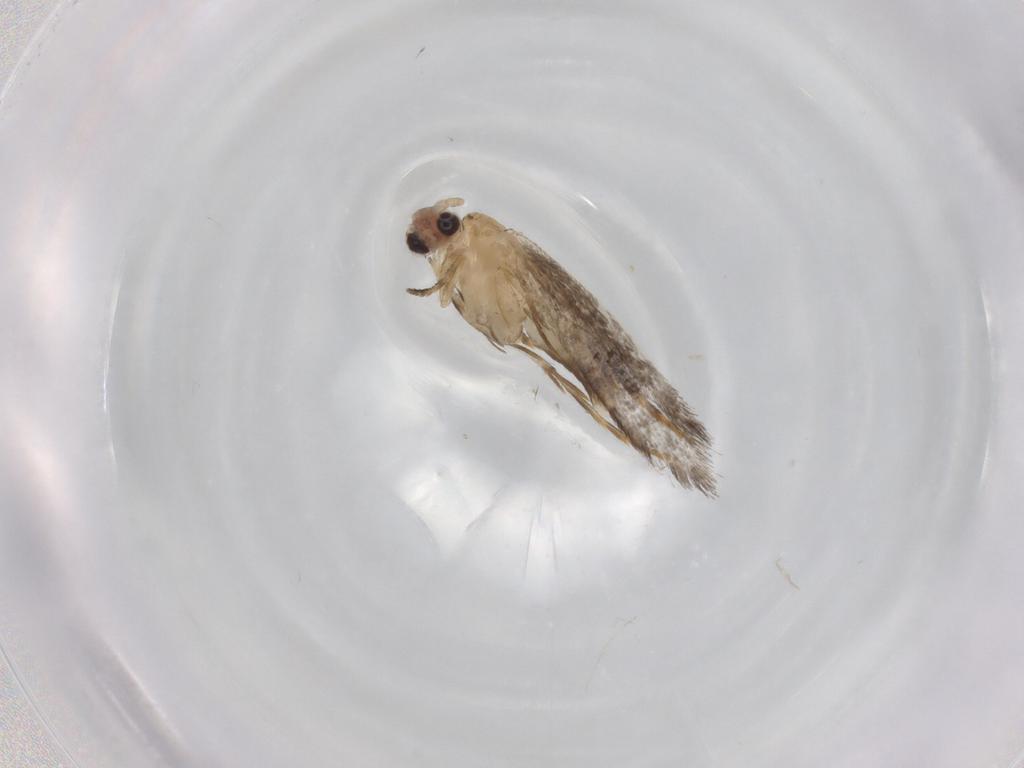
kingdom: Animalia
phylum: Arthropoda
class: Insecta
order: Lepidoptera
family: Tineidae
